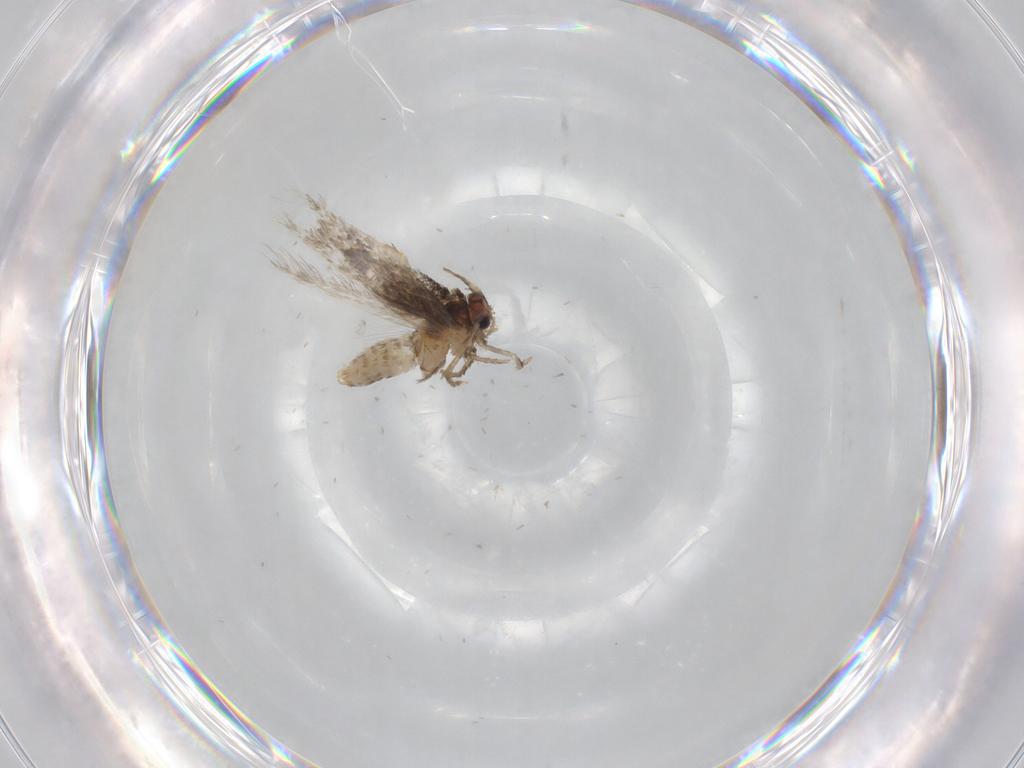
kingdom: Animalia
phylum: Arthropoda
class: Insecta
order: Lepidoptera
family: Nepticulidae
